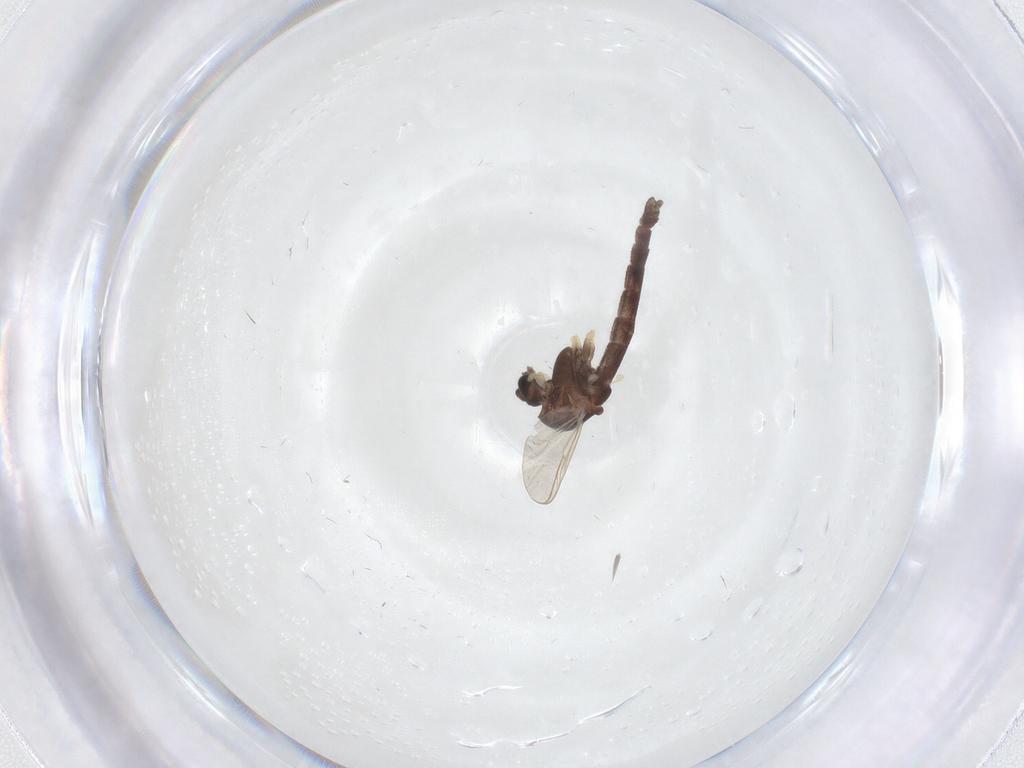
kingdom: Animalia
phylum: Arthropoda
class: Insecta
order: Diptera
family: Chironomidae
